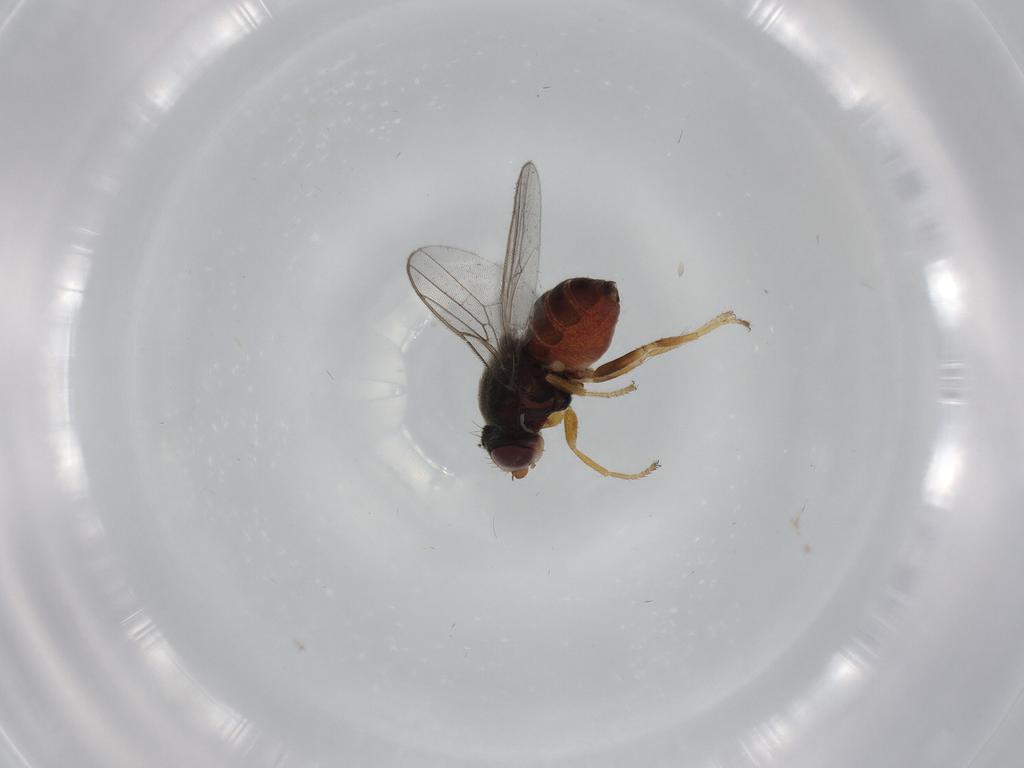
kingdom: Animalia
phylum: Arthropoda
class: Insecta
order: Diptera
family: Chloropidae
